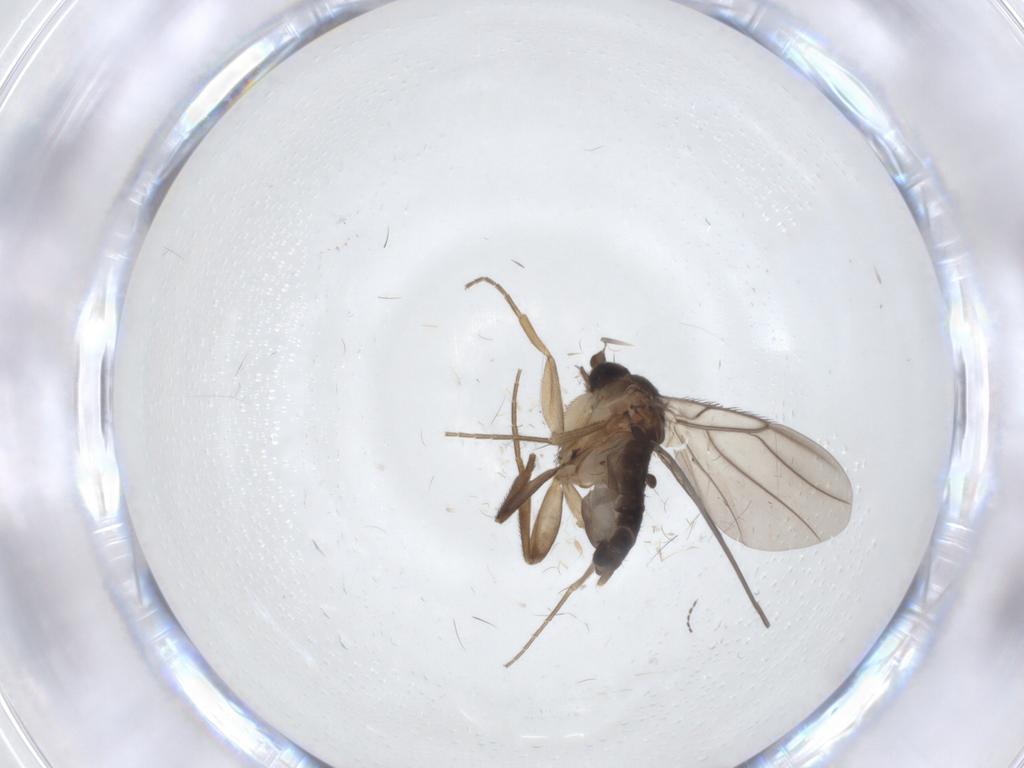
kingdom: Animalia
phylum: Arthropoda
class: Insecta
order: Diptera
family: Phoridae
